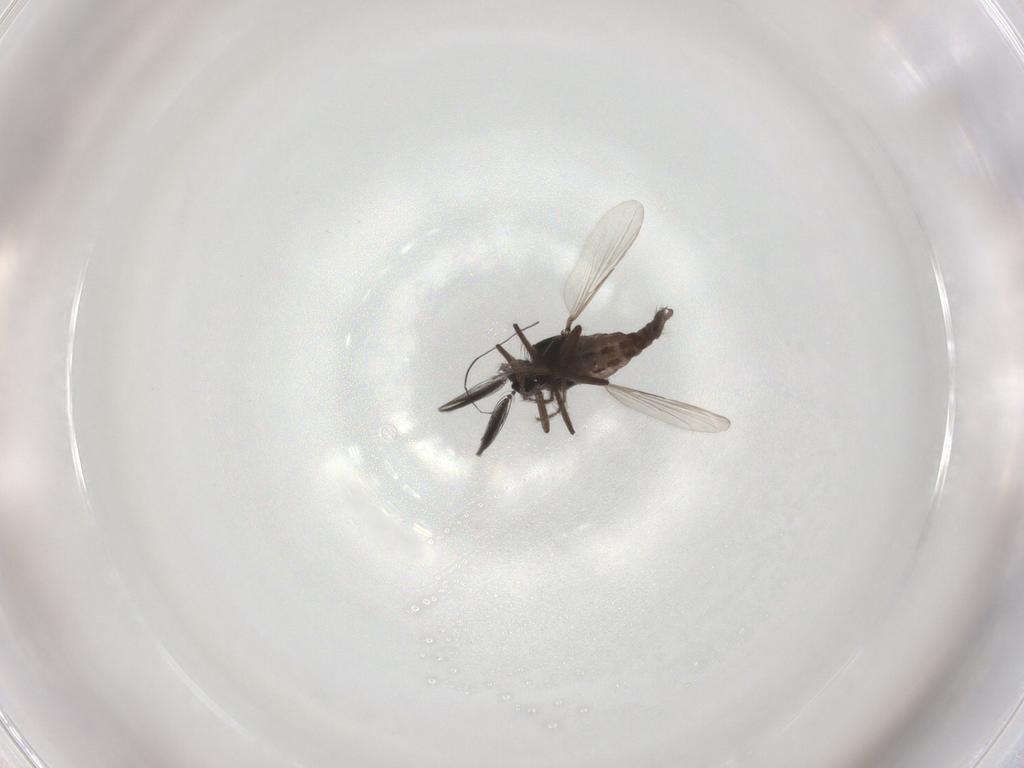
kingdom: Animalia
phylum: Arthropoda
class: Insecta
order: Diptera
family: Ceratopogonidae
